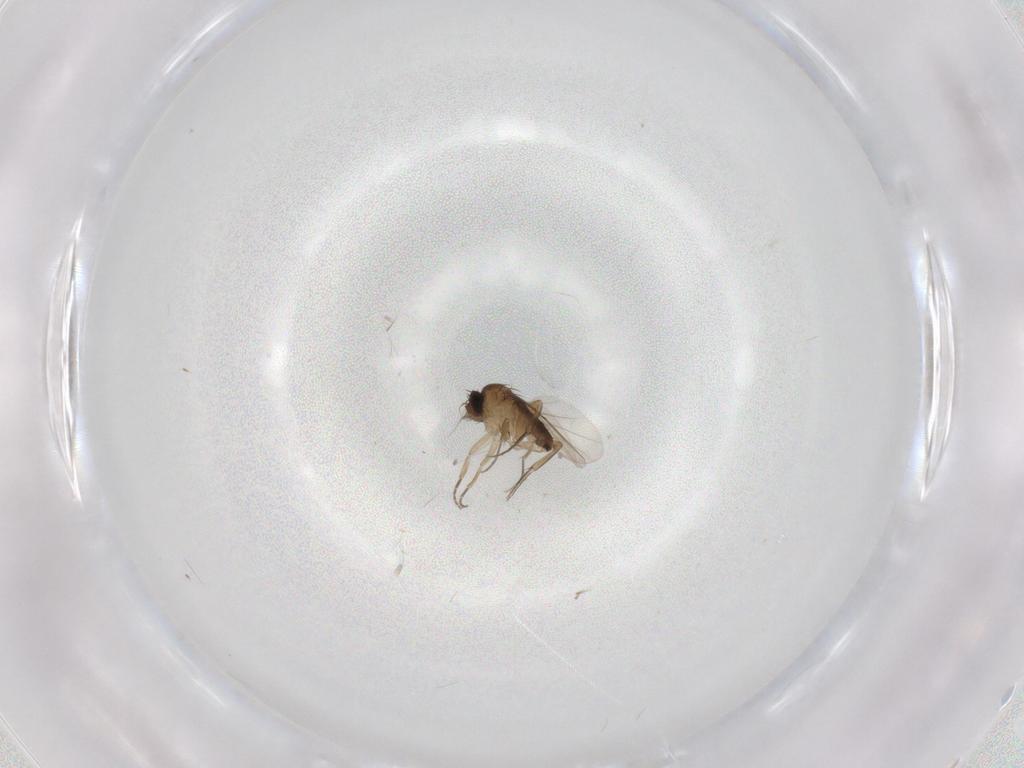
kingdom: Animalia
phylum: Arthropoda
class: Insecta
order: Diptera
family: Phoridae
